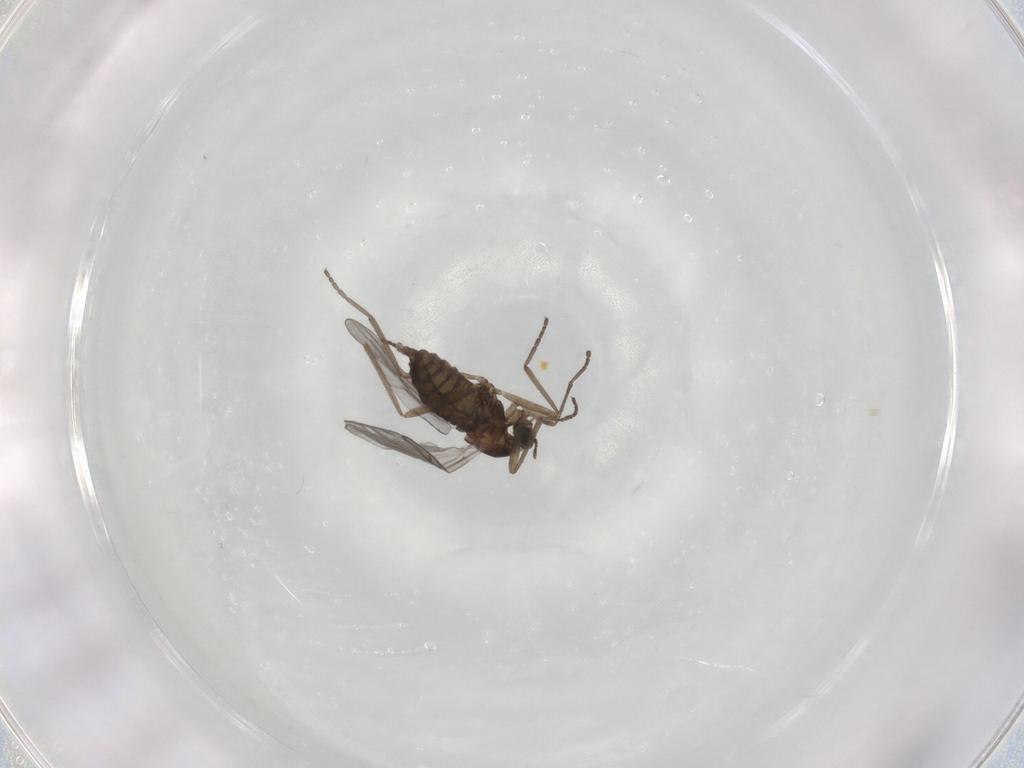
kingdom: Animalia
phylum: Arthropoda
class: Insecta
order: Diptera
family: Cecidomyiidae
